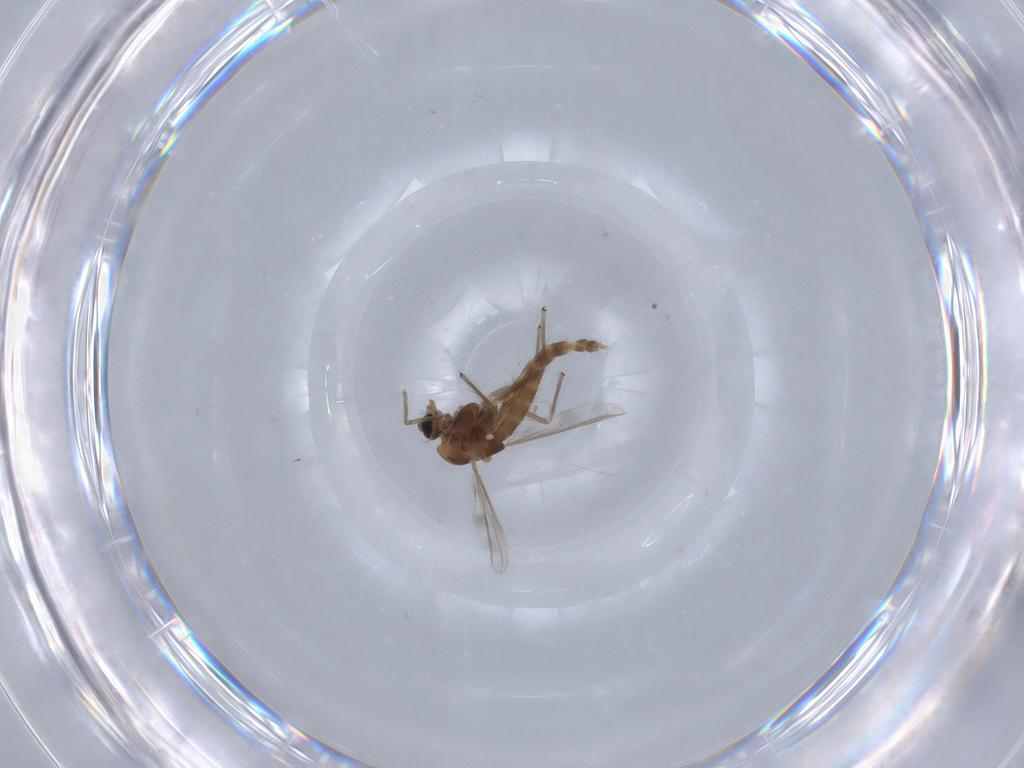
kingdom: Animalia
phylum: Arthropoda
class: Insecta
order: Diptera
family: Chironomidae
